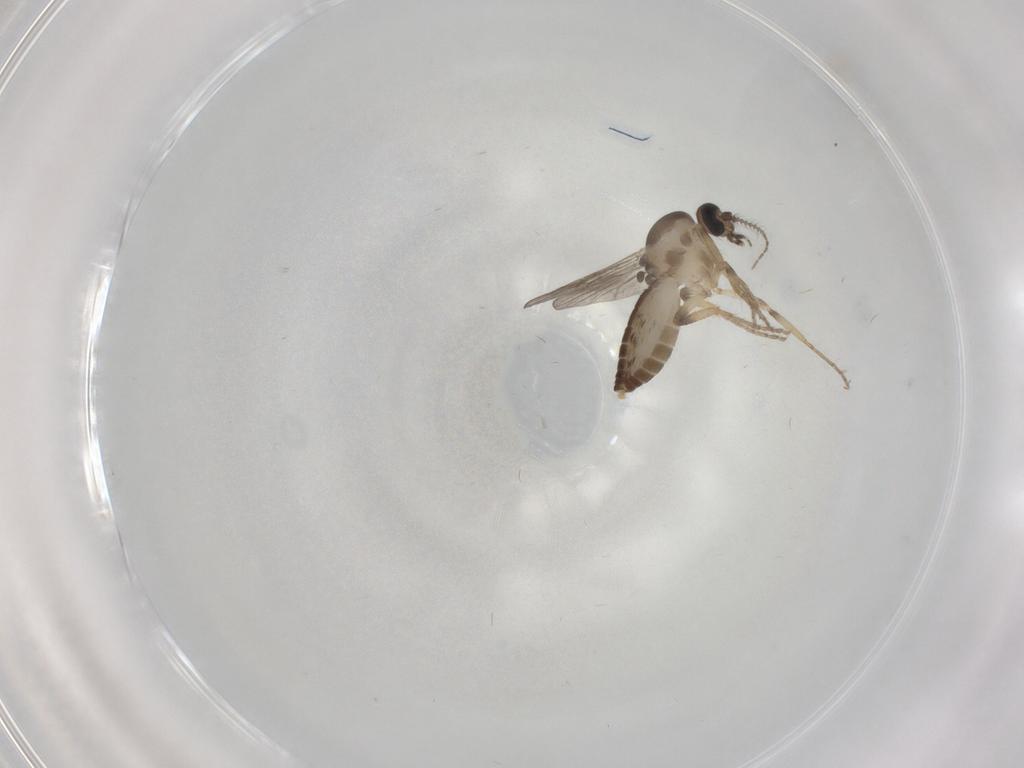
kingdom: Animalia
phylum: Arthropoda
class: Insecta
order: Diptera
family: Ceratopogonidae
